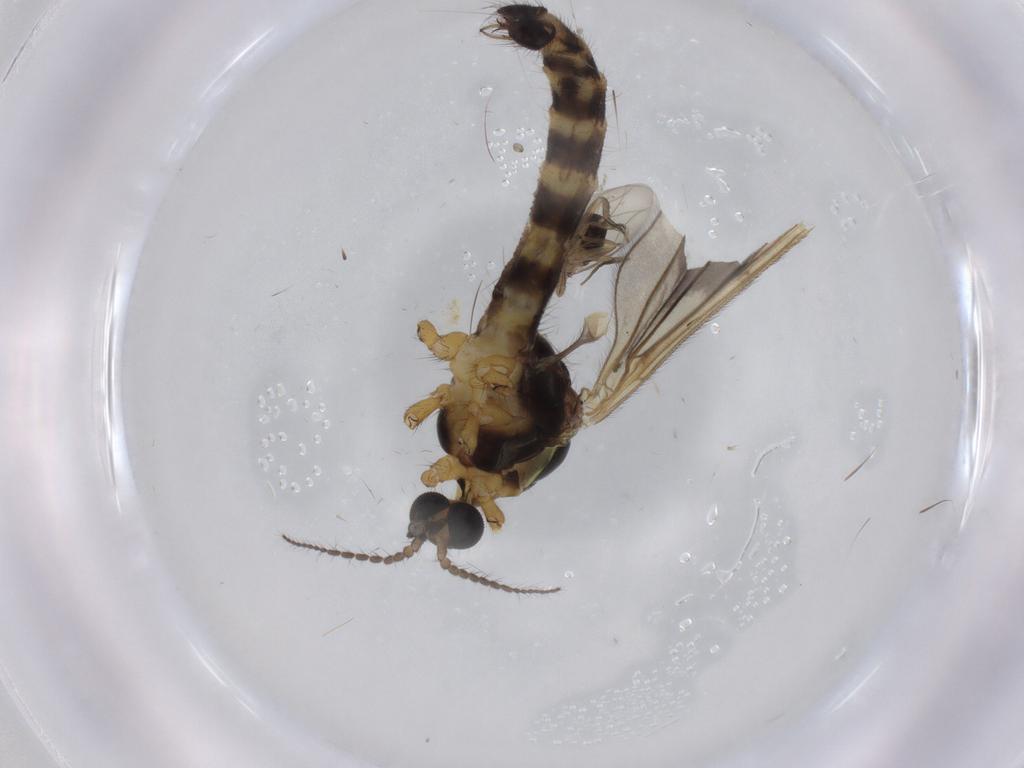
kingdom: Animalia
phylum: Arthropoda
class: Insecta
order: Diptera
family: Limoniidae
